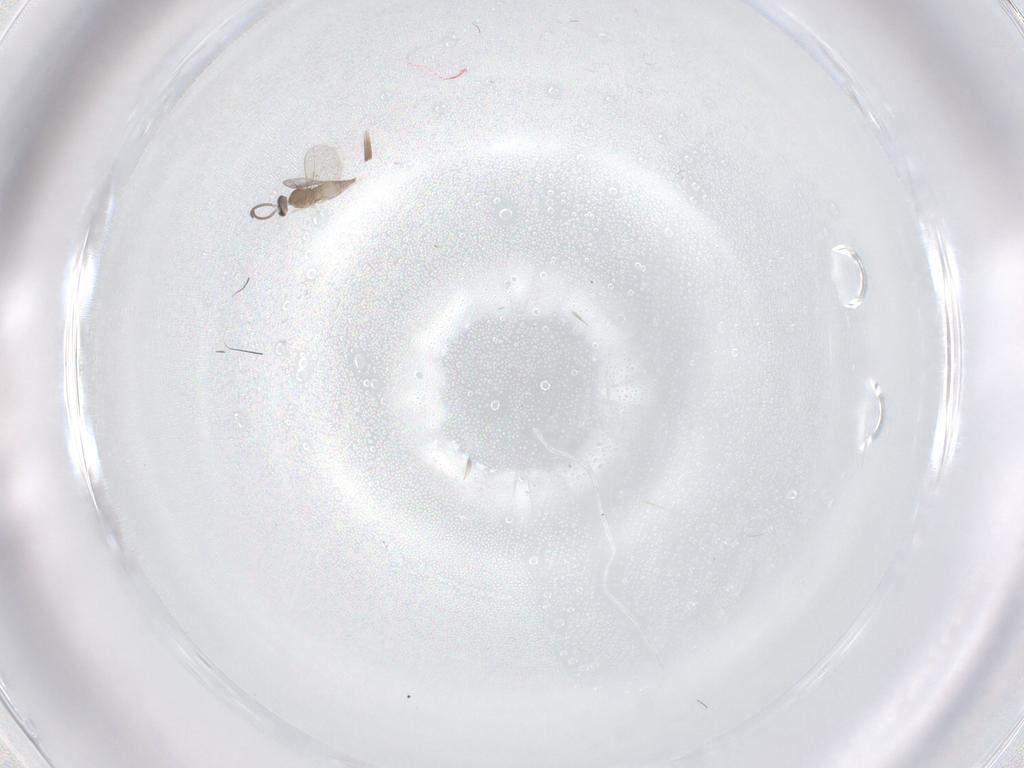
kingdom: Animalia
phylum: Arthropoda
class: Insecta
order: Diptera
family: Cecidomyiidae
